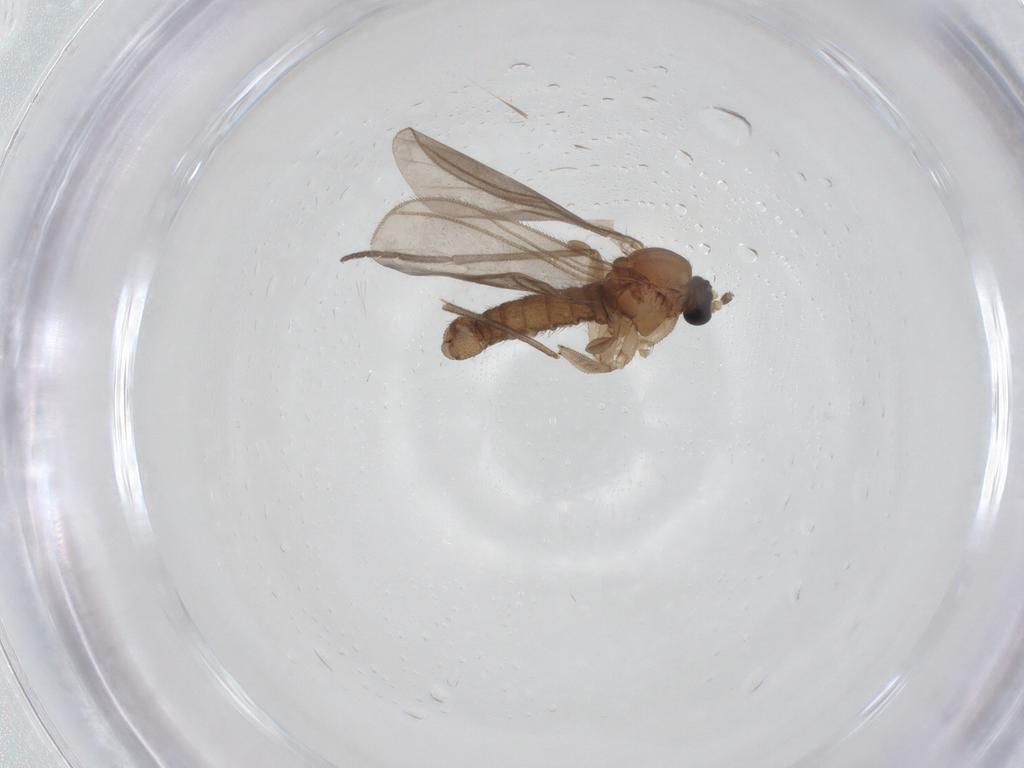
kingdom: Animalia
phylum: Arthropoda
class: Insecta
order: Diptera
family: Sciaridae
